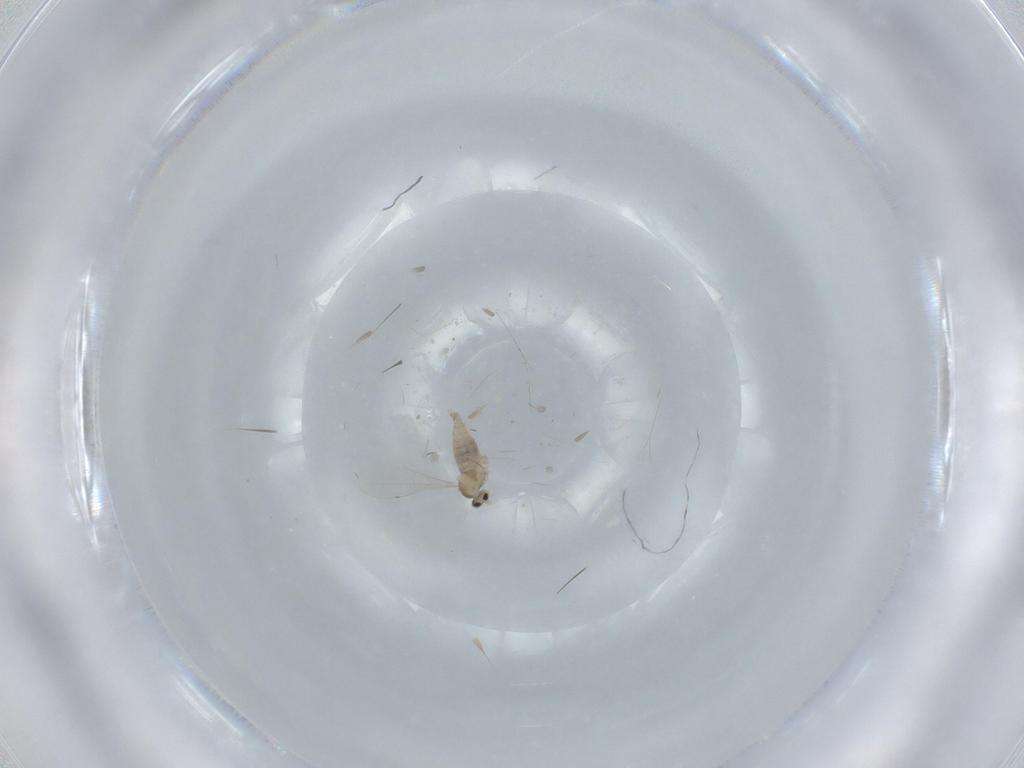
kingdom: Animalia
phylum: Arthropoda
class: Insecta
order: Diptera
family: Cecidomyiidae
